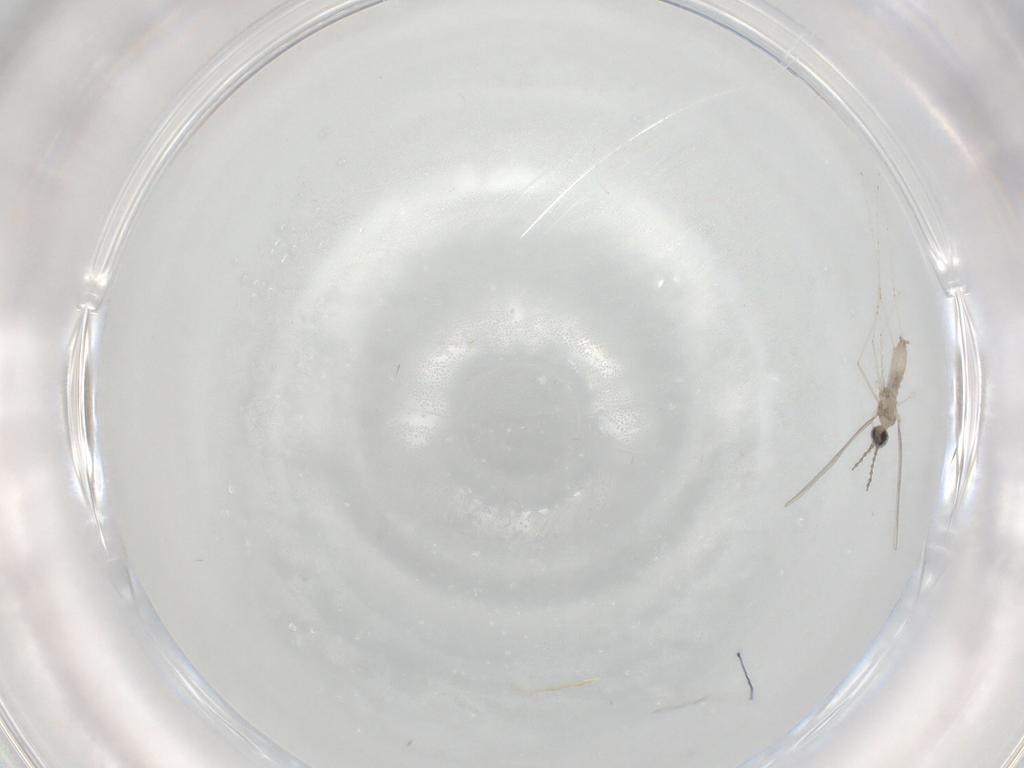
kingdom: Animalia
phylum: Arthropoda
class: Insecta
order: Diptera
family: Cecidomyiidae
